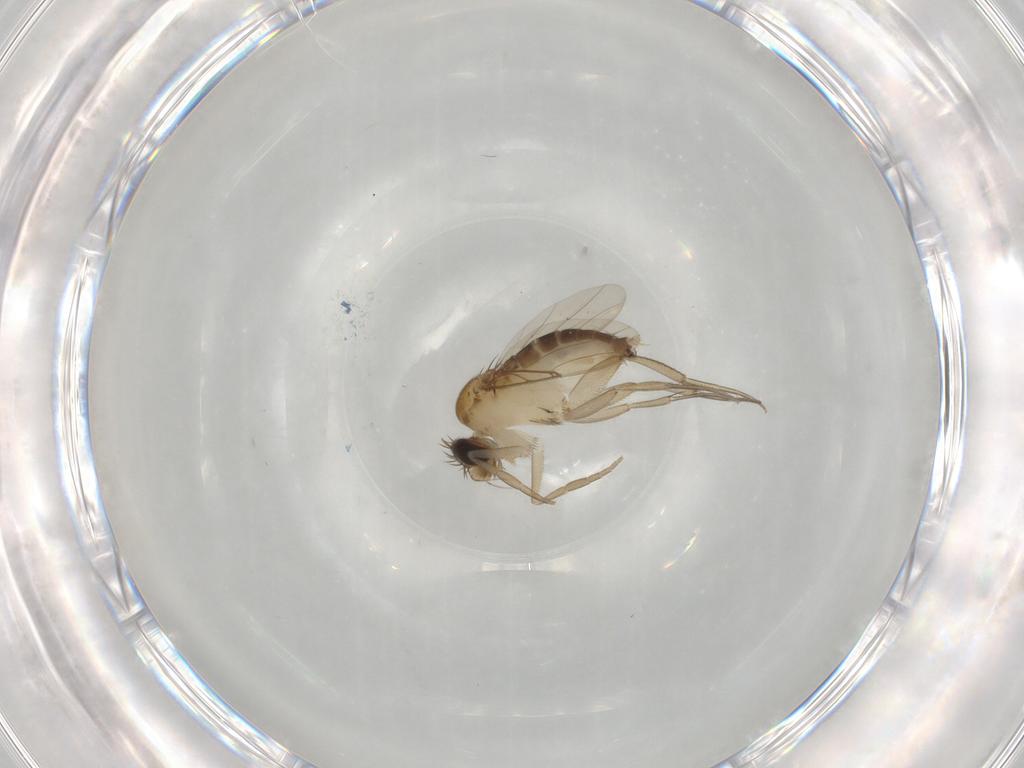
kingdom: Animalia
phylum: Arthropoda
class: Insecta
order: Diptera
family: Phoridae
